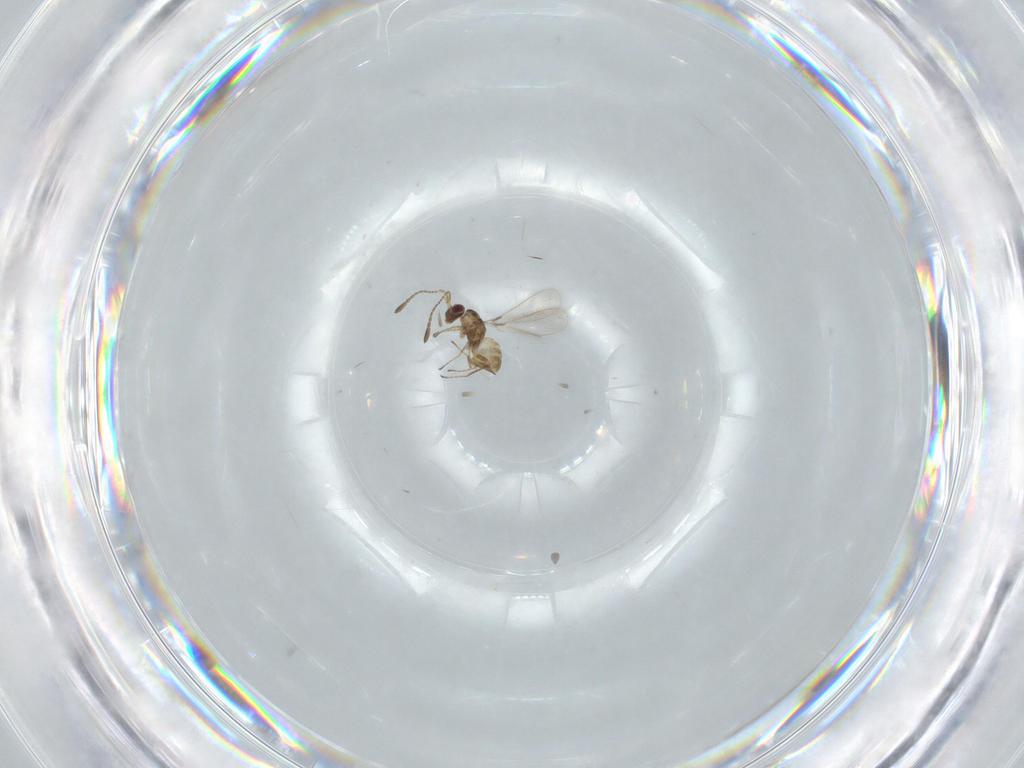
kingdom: Animalia
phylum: Arthropoda
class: Insecta
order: Hymenoptera
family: Mymaridae
